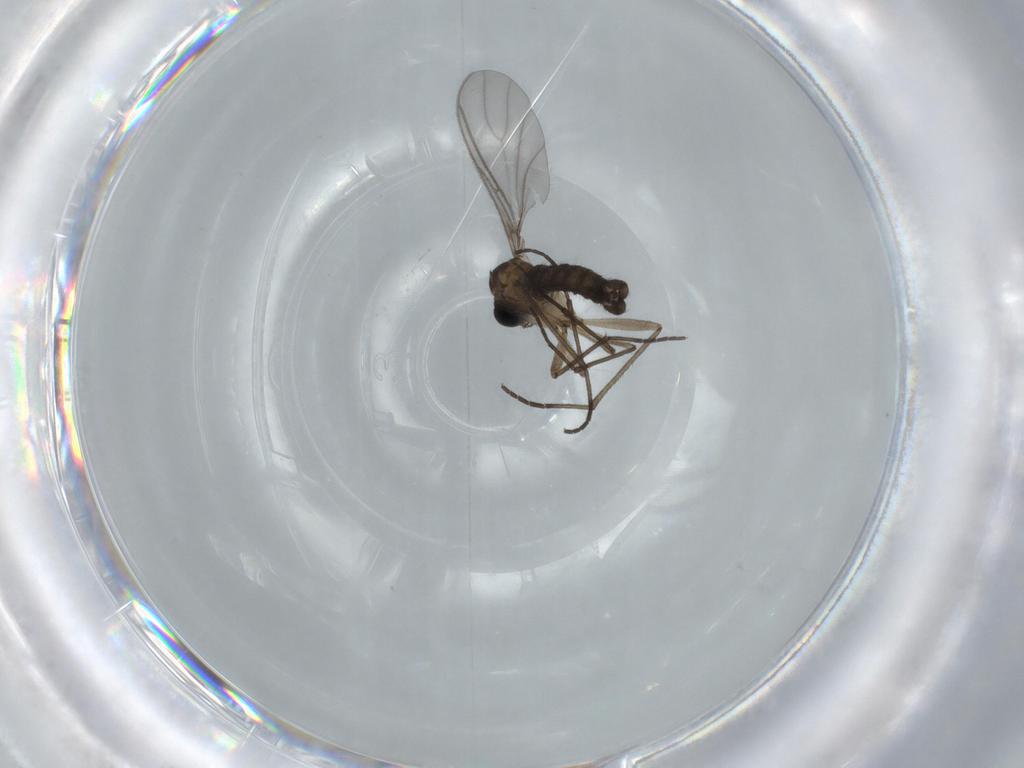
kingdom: Animalia
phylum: Arthropoda
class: Insecta
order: Diptera
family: Sciaridae
